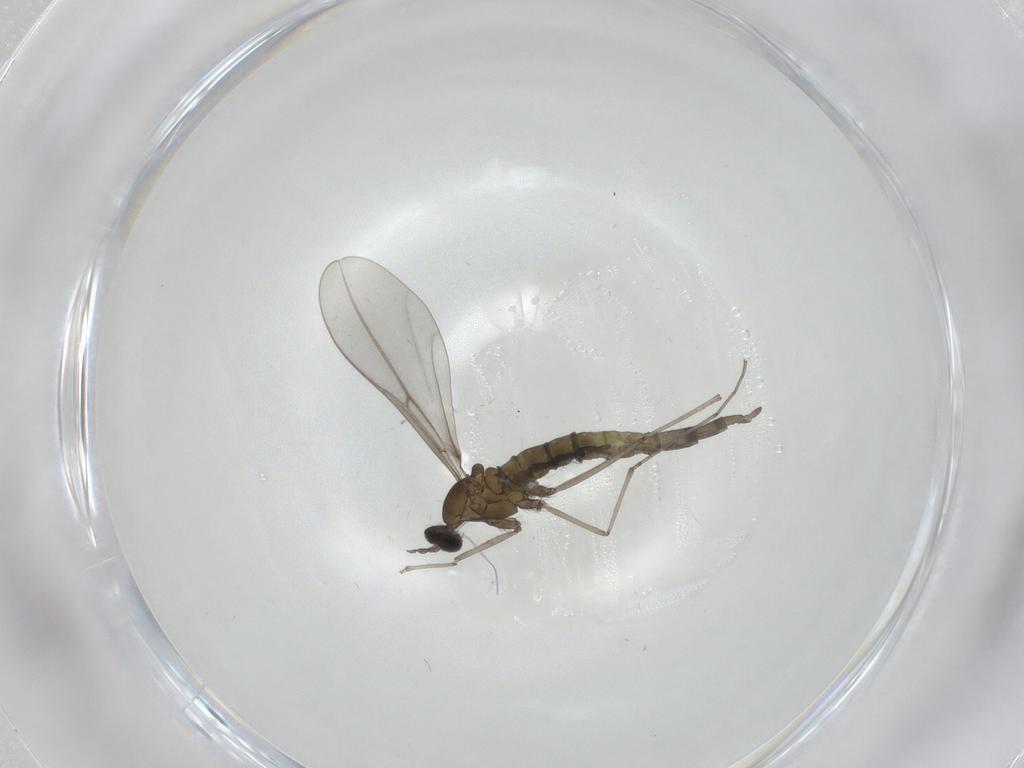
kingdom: Animalia
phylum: Arthropoda
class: Insecta
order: Diptera
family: Cecidomyiidae
